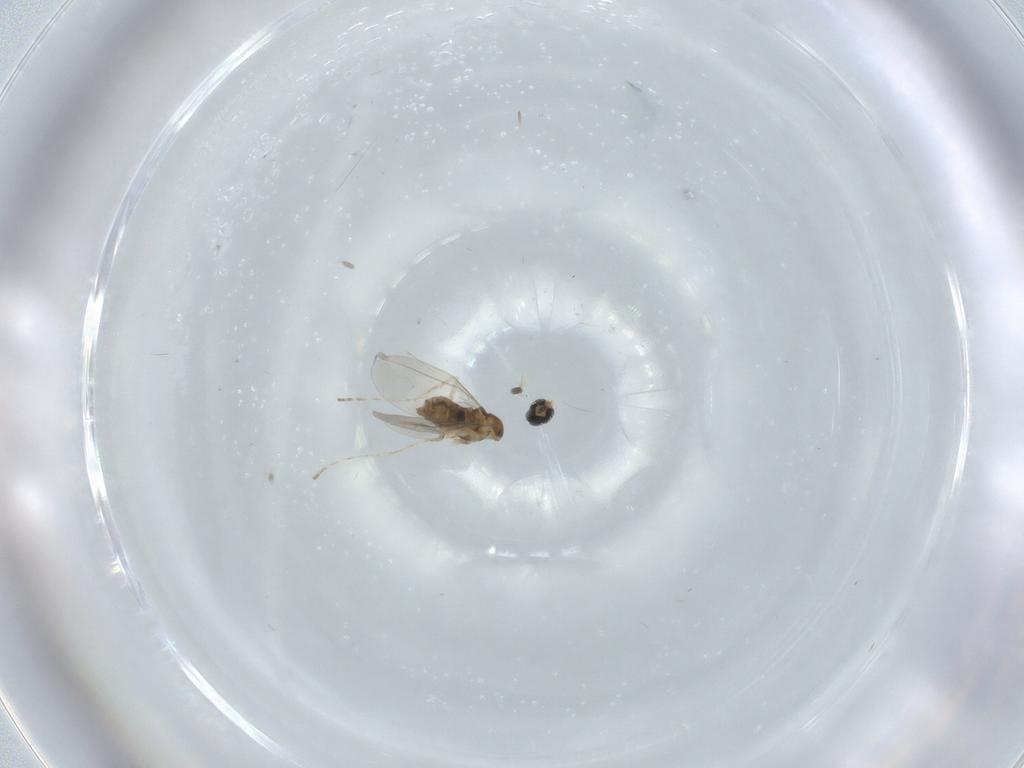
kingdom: Animalia
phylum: Arthropoda
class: Insecta
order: Diptera
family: Cecidomyiidae
